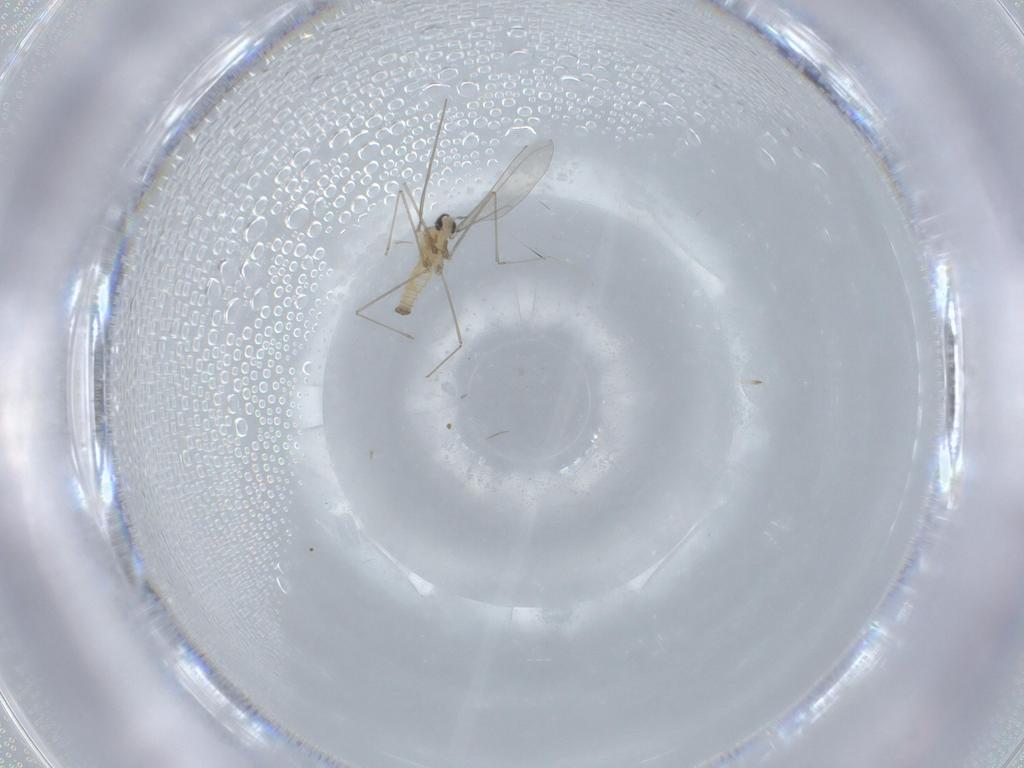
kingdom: Animalia
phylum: Arthropoda
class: Insecta
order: Diptera
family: Cecidomyiidae
